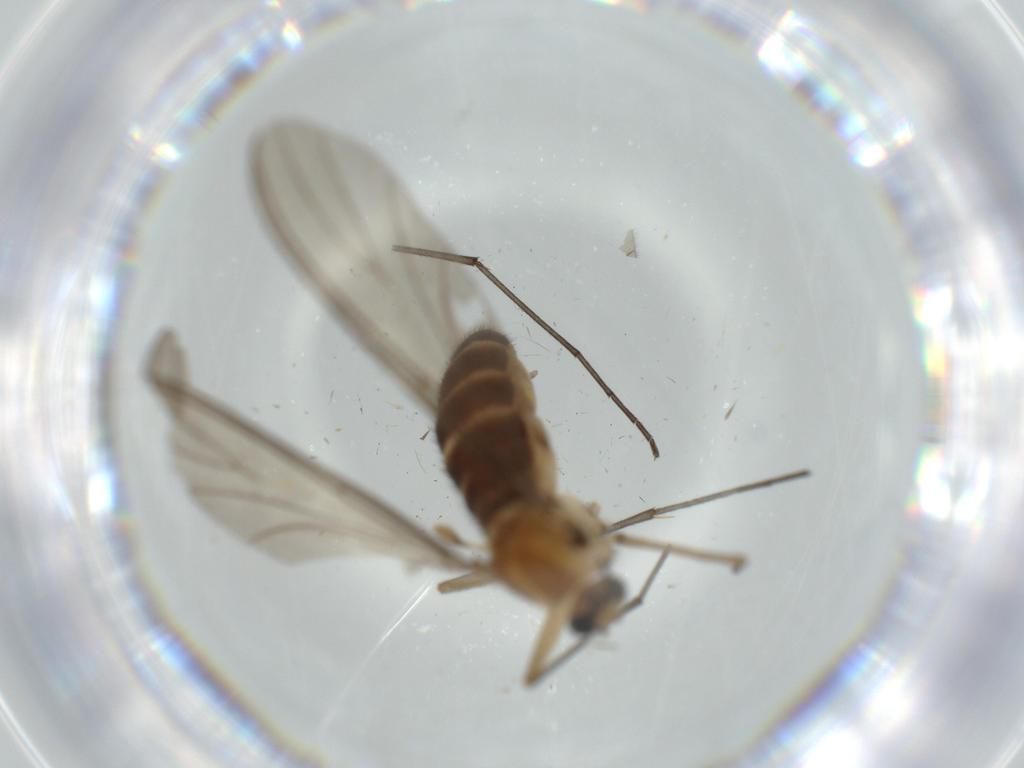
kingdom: Animalia
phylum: Arthropoda
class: Insecta
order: Diptera
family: Sciaridae
